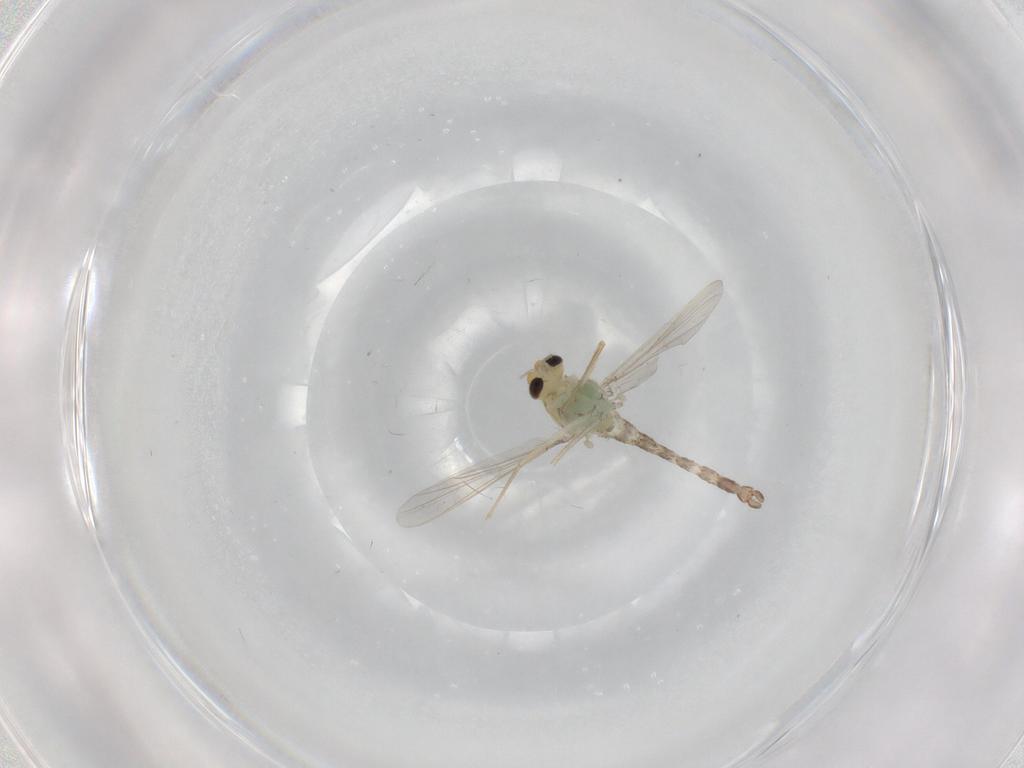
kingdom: Animalia
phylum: Arthropoda
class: Insecta
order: Diptera
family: Chironomidae
